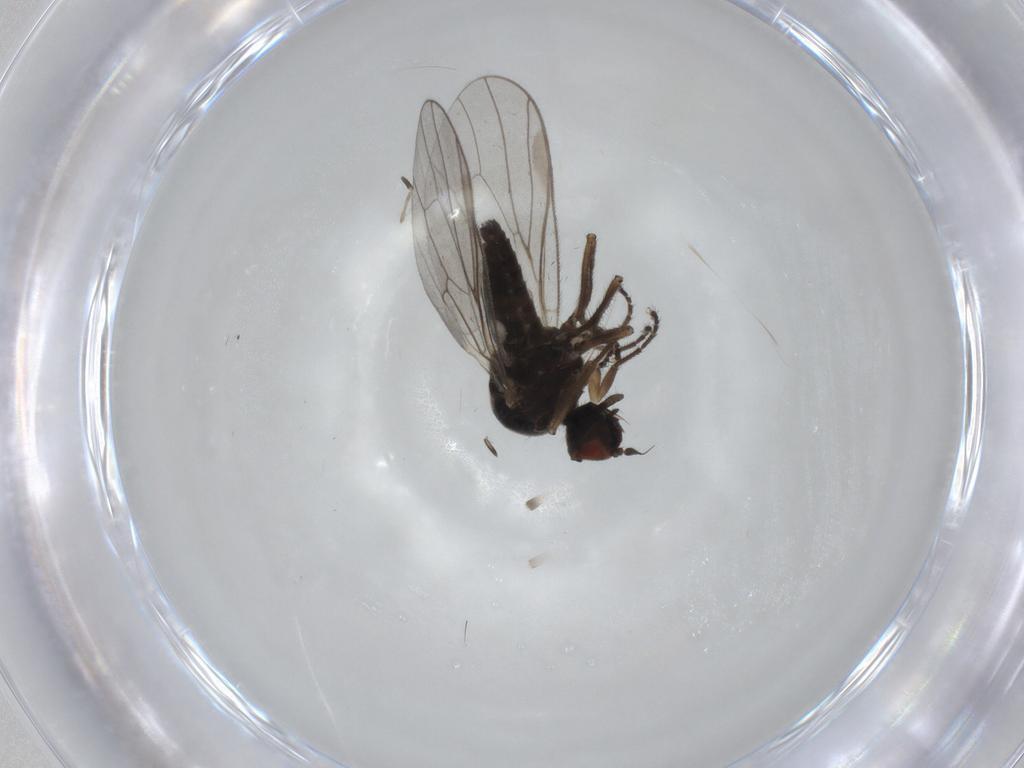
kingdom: Animalia
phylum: Arthropoda
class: Insecta
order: Diptera
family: Hybotidae
